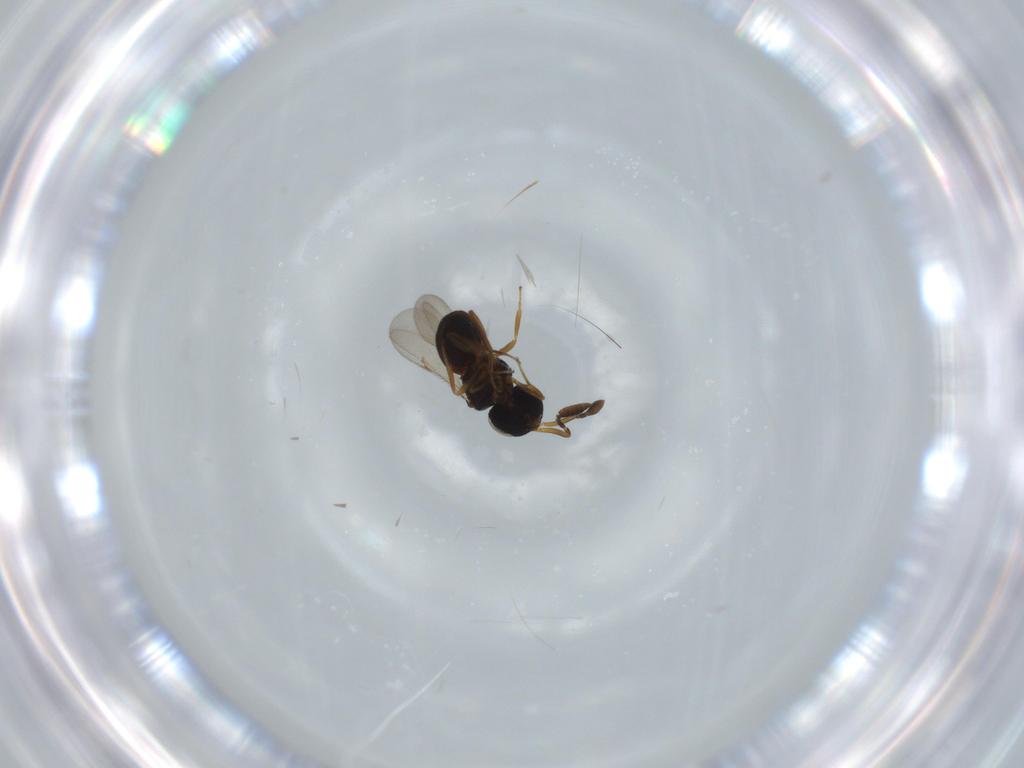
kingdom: Animalia
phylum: Arthropoda
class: Insecta
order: Coleoptera
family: Curculionidae
